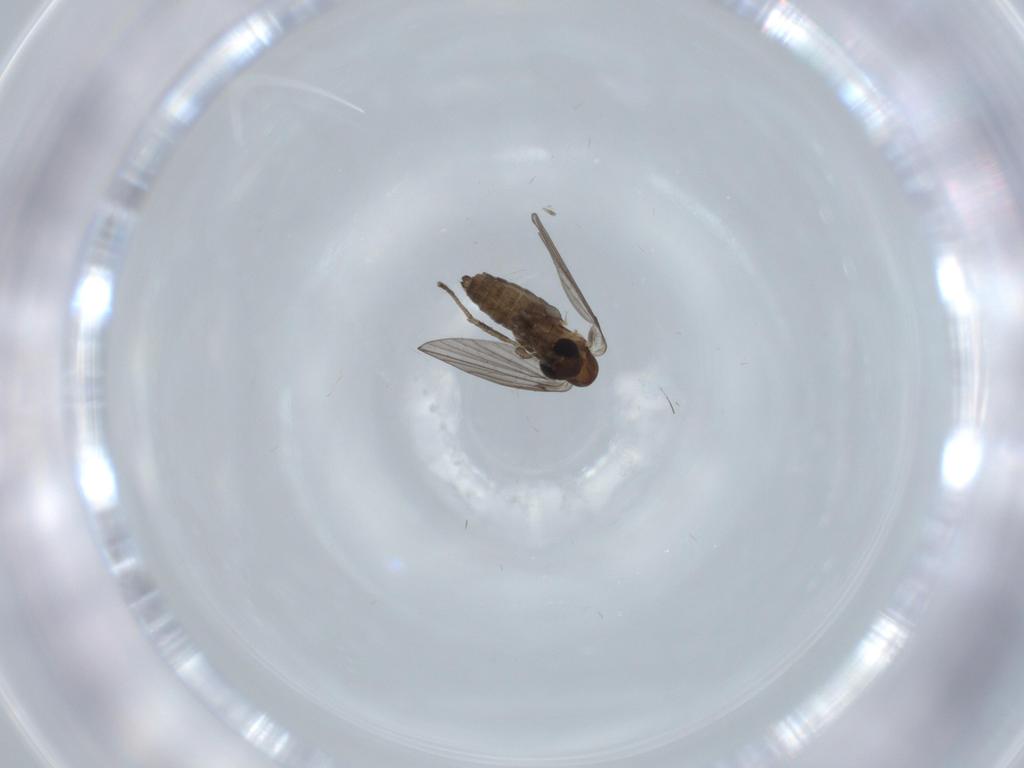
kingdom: Animalia
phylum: Arthropoda
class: Insecta
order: Diptera
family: Psychodidae
